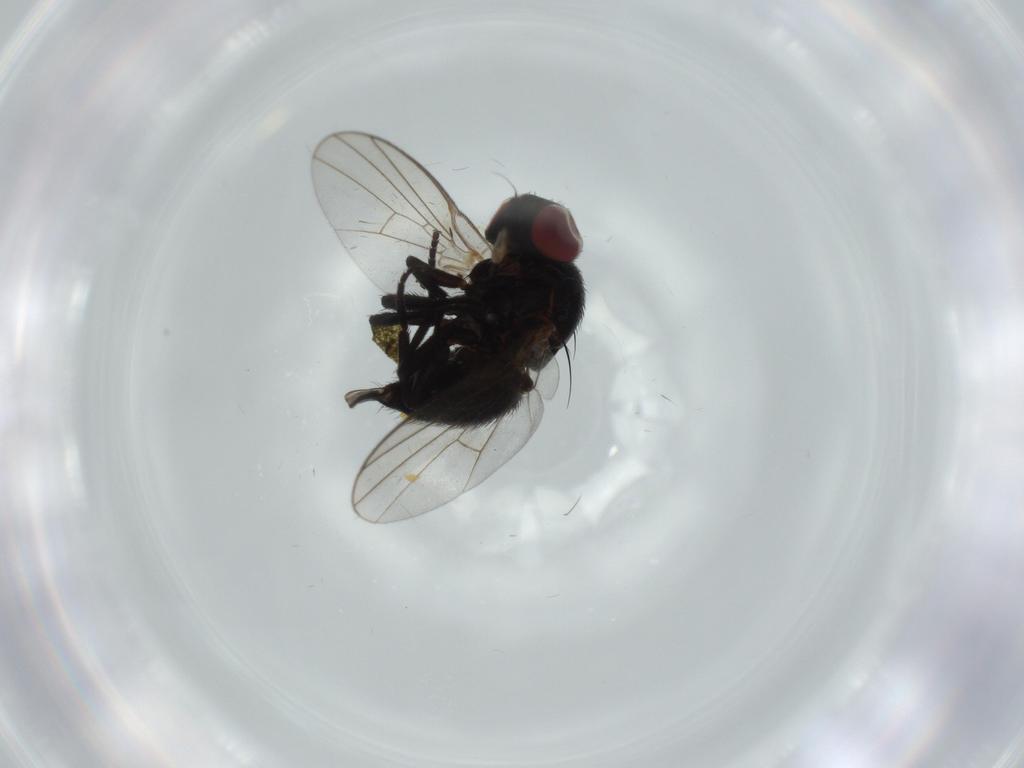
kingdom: Animalia
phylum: Arthropoda
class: Insecta
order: Diptera
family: Agromyzidae
